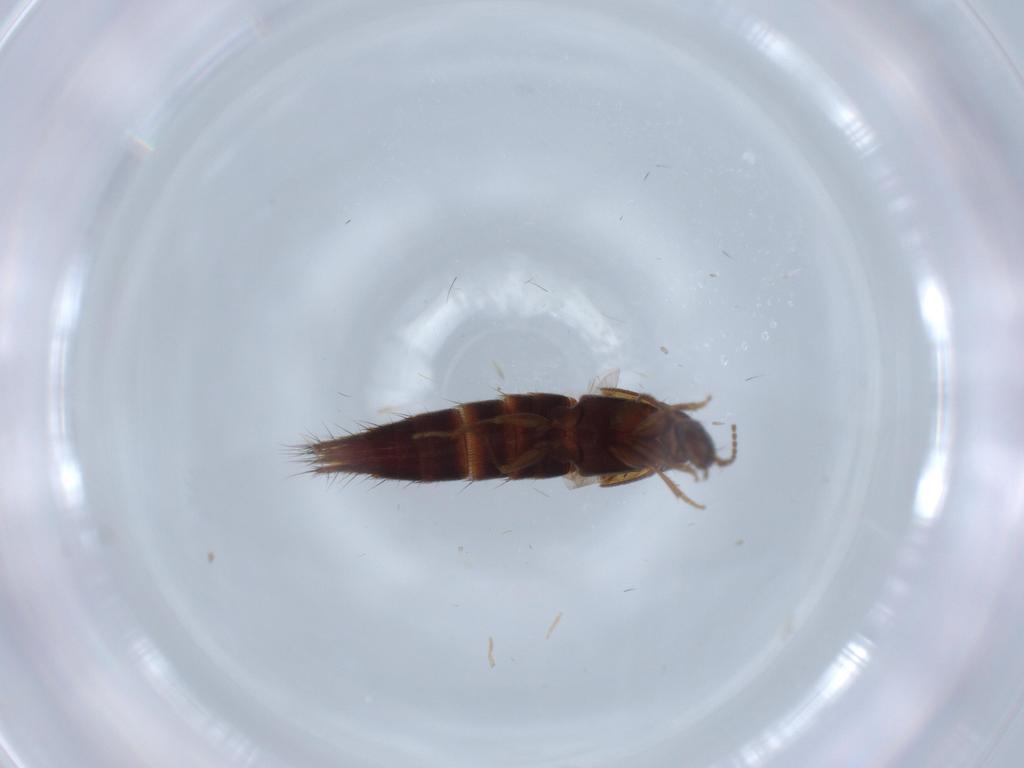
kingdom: Animalia
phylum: Arthropoda
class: Insecta
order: Coleoptera
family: Staphylinidae
